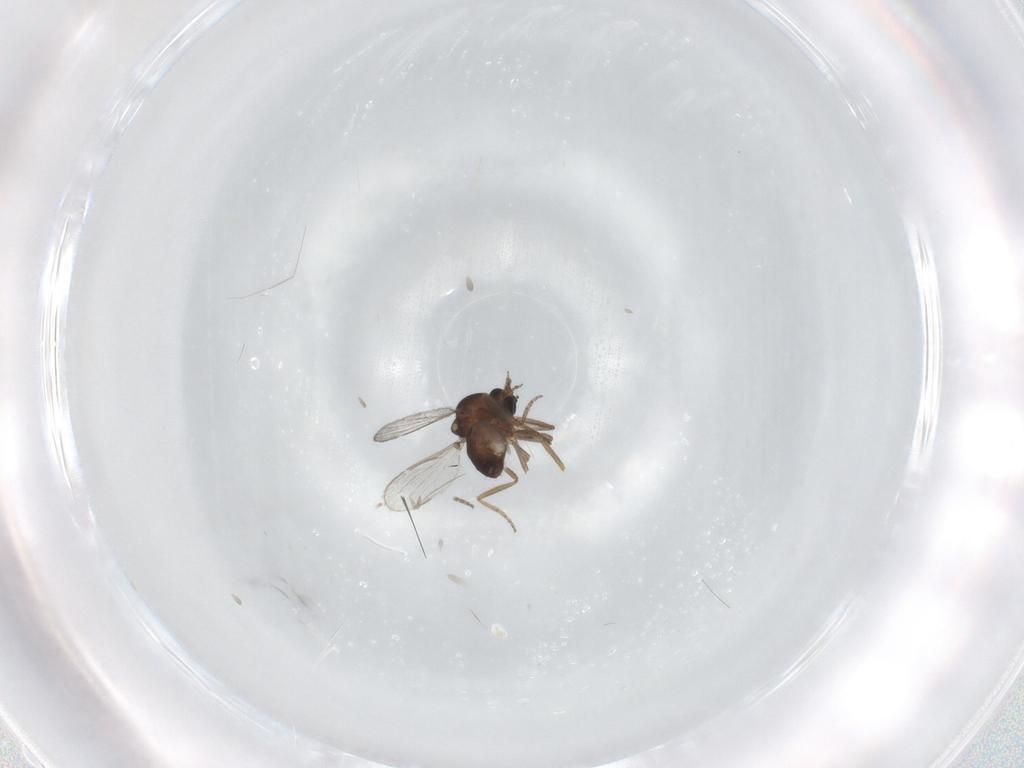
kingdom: Animalia
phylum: Arthropoda
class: Insecta
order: Diptera
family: Ceratopogonidae
